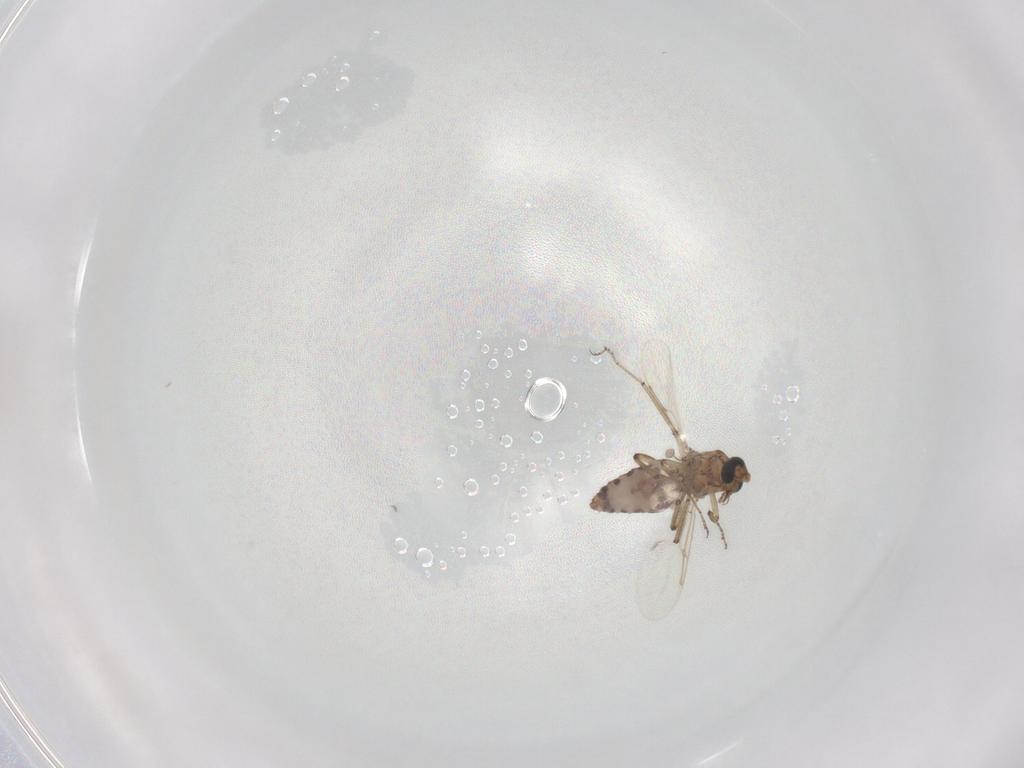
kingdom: Animalia
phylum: Arthropoda
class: Insecta
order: Diptera
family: Ceratopogonidae
